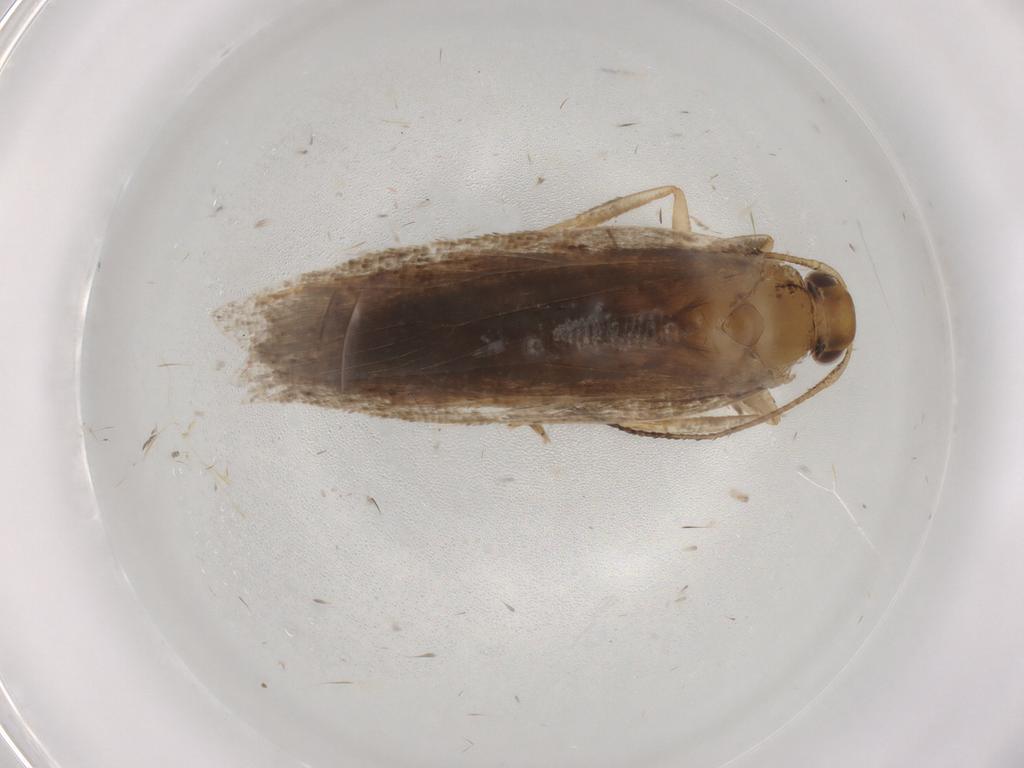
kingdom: Animalia
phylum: Arthropoda
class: Insecta
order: Lepidoptera
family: Gelechiidae
